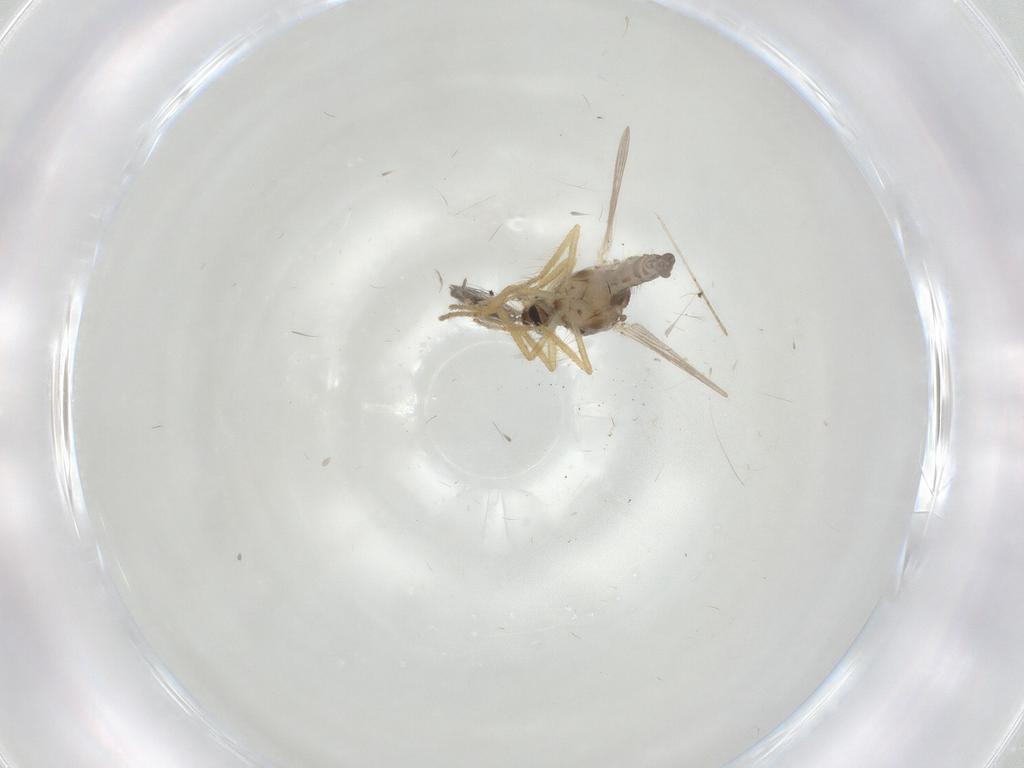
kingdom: Animalia
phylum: Arthropoda
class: Insecta
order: Diptera
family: Ceratopogonidae
